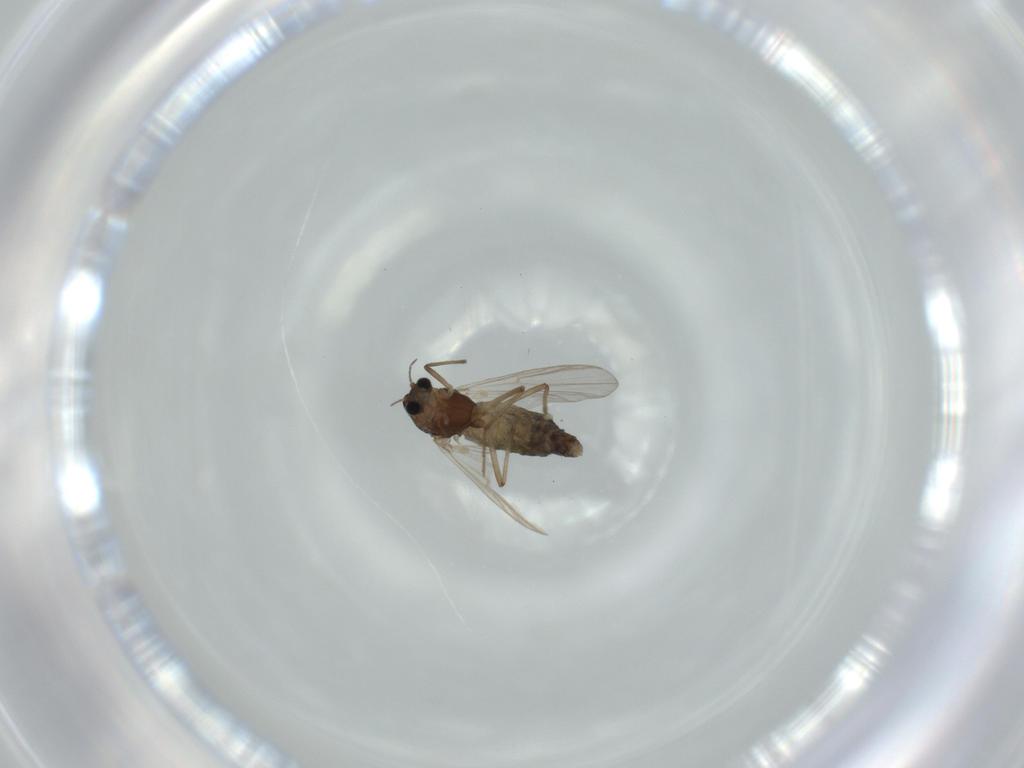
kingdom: Animalia
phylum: Arthropoda
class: Insecta
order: Diptera
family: Chironomidae
